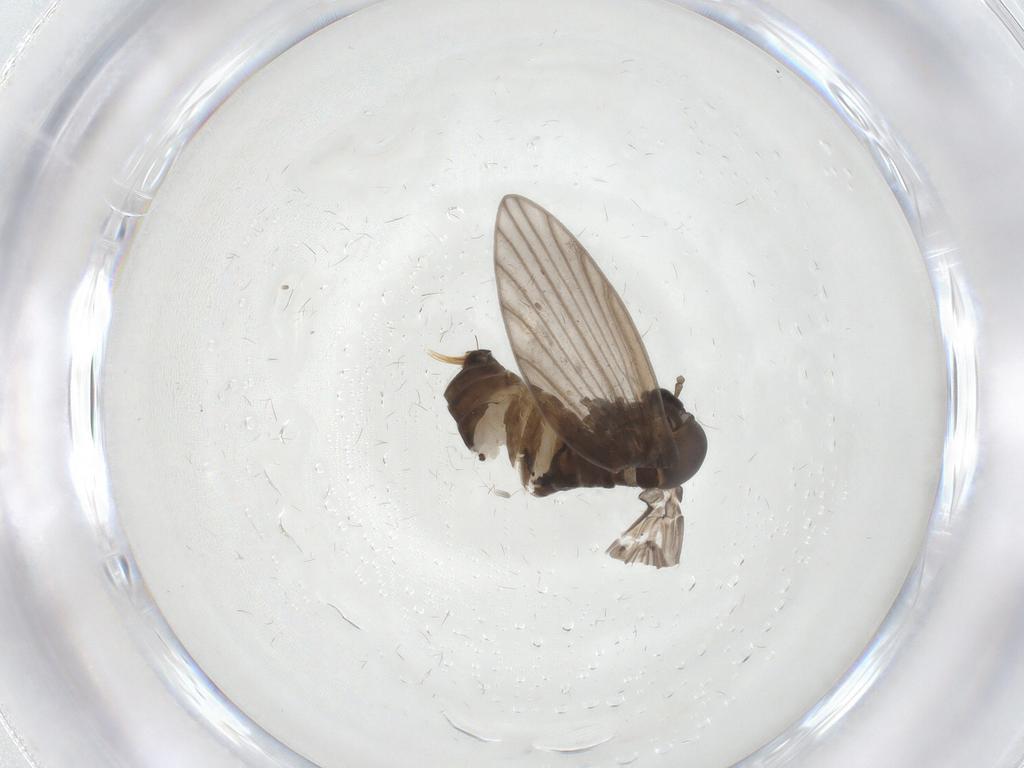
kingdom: Animalia
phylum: Arthropoda
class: Insecta
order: Diptera
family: Psychodidae
